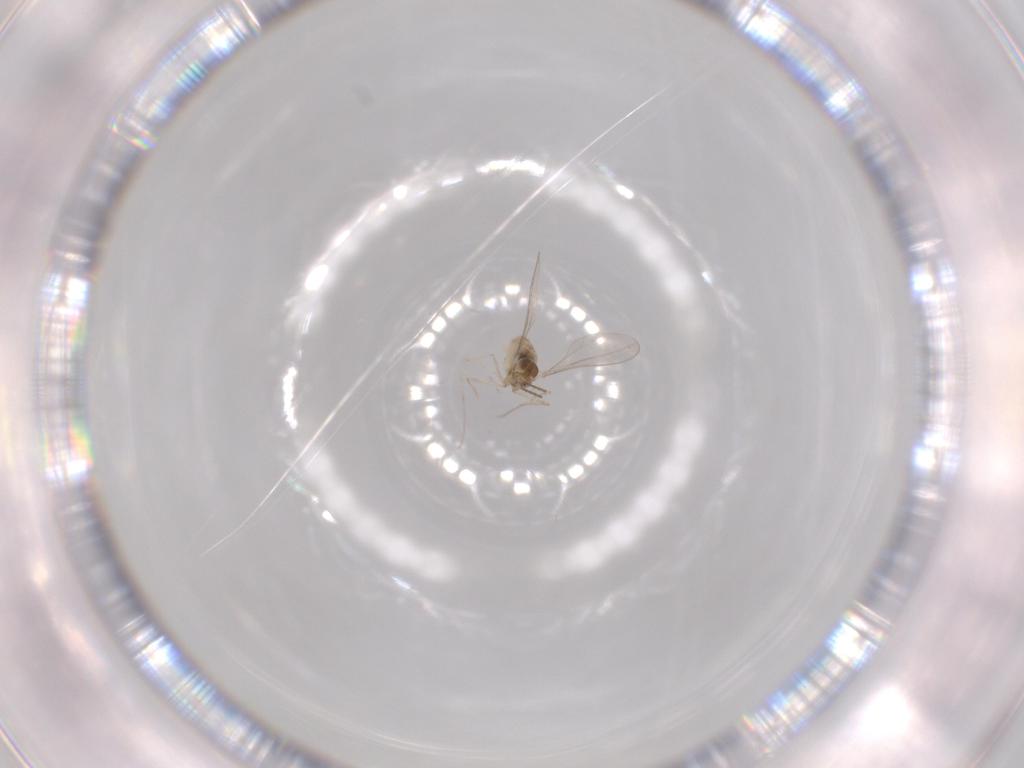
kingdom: Animalia
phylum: Arthropoda
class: Insecta
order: Diptera
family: Cecidomyiidae
